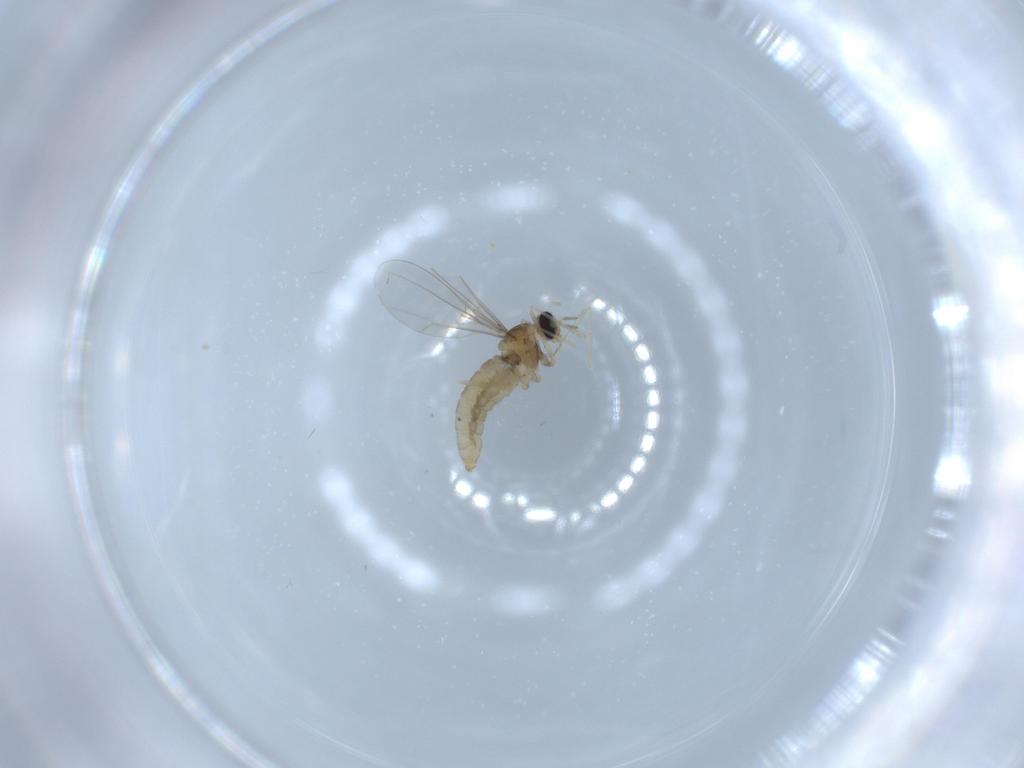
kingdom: Animalia
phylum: Arthropoda
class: Insecta
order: Diptera
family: Cecidomyiidae
